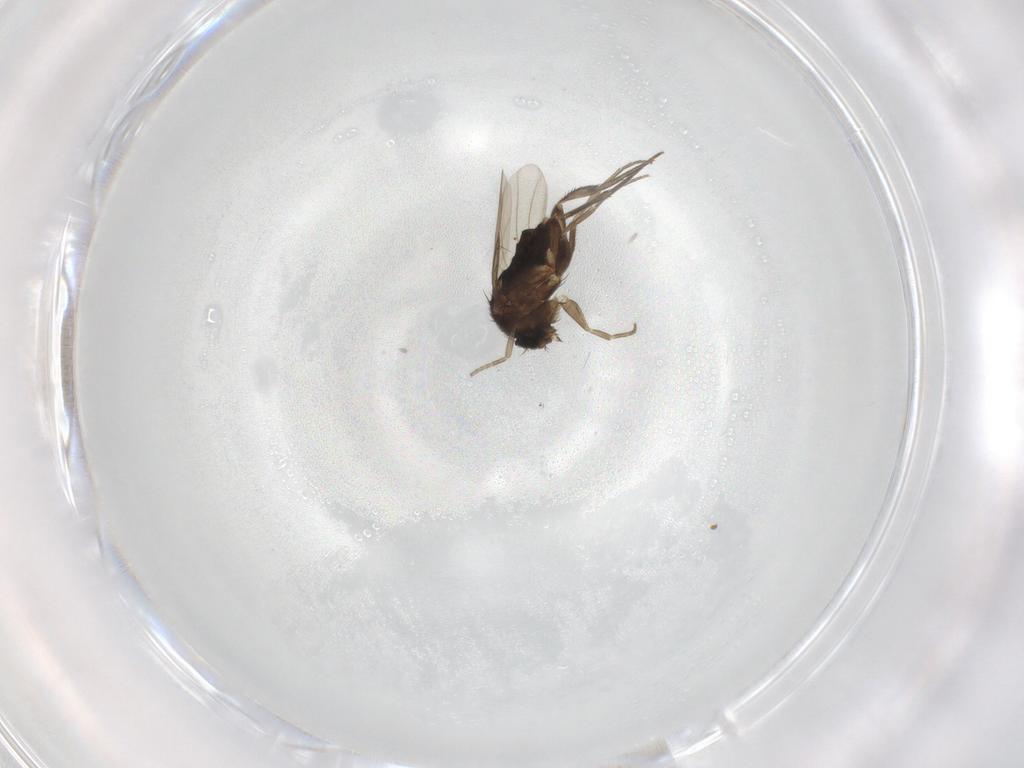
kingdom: Animalia
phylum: Arthropoda
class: Insecta
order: Diptera
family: Phoridae
